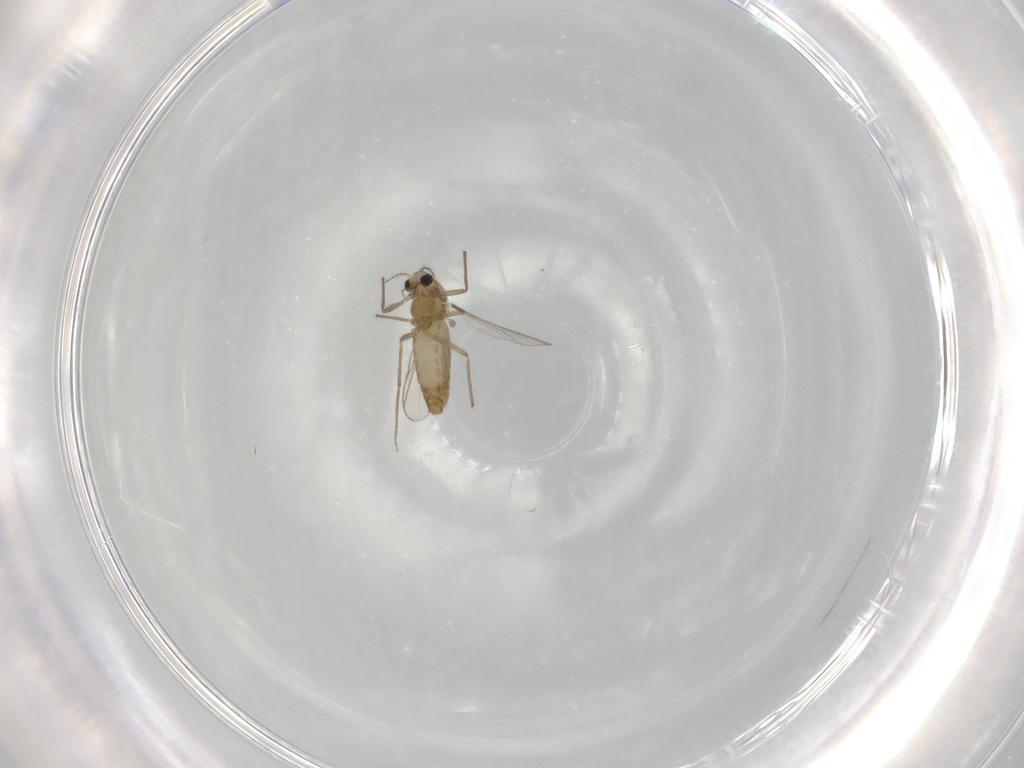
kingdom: Animalia
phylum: Arthropoda
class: Insecta
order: Diptera
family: Chironomidae
